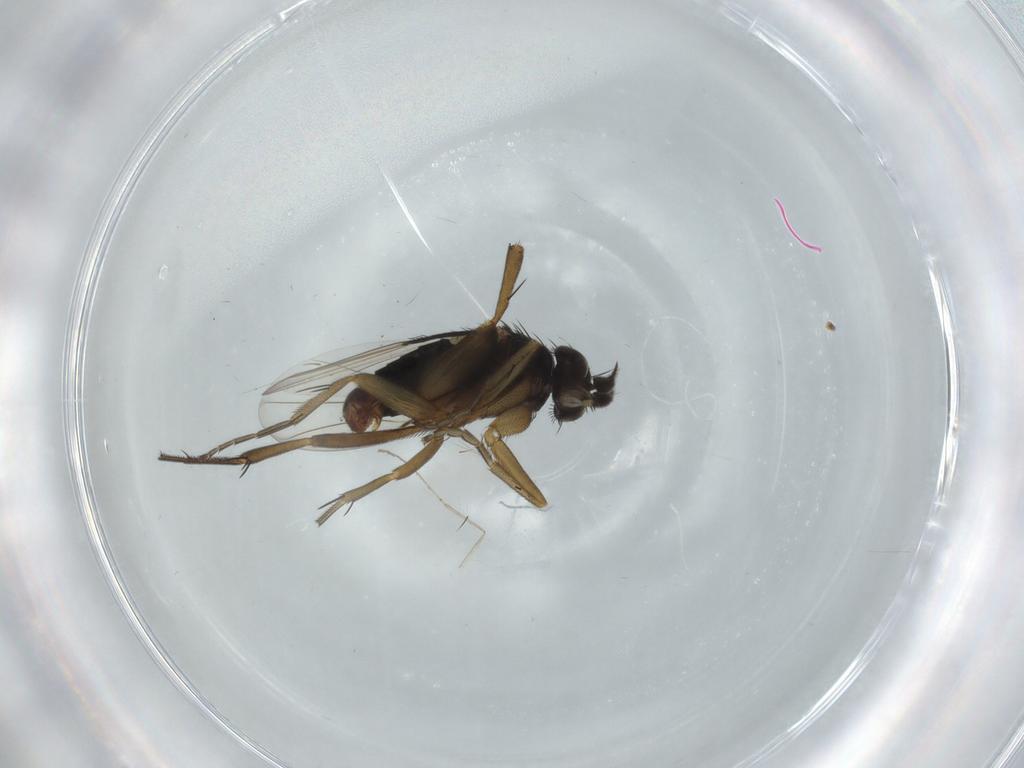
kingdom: Animalia
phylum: Arthropoda
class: Insecta
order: Diptera
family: Phoridae
